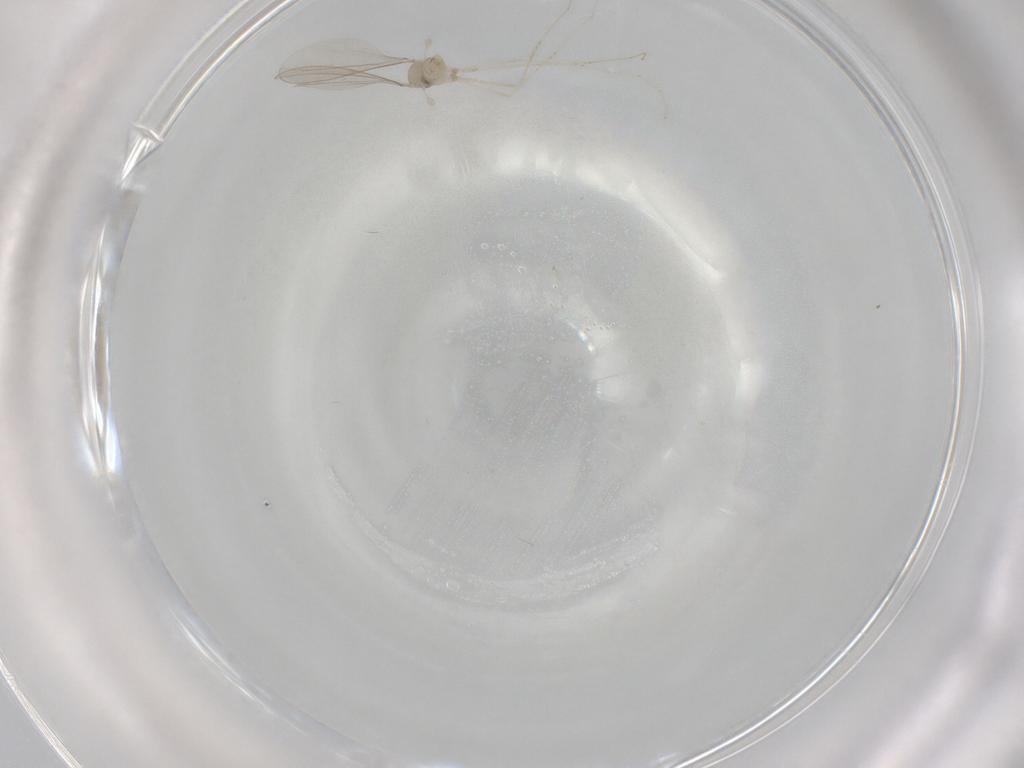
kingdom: Animalia
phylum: Arthropoda
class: Insecta
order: Diptera
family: Cecidomyiidae
